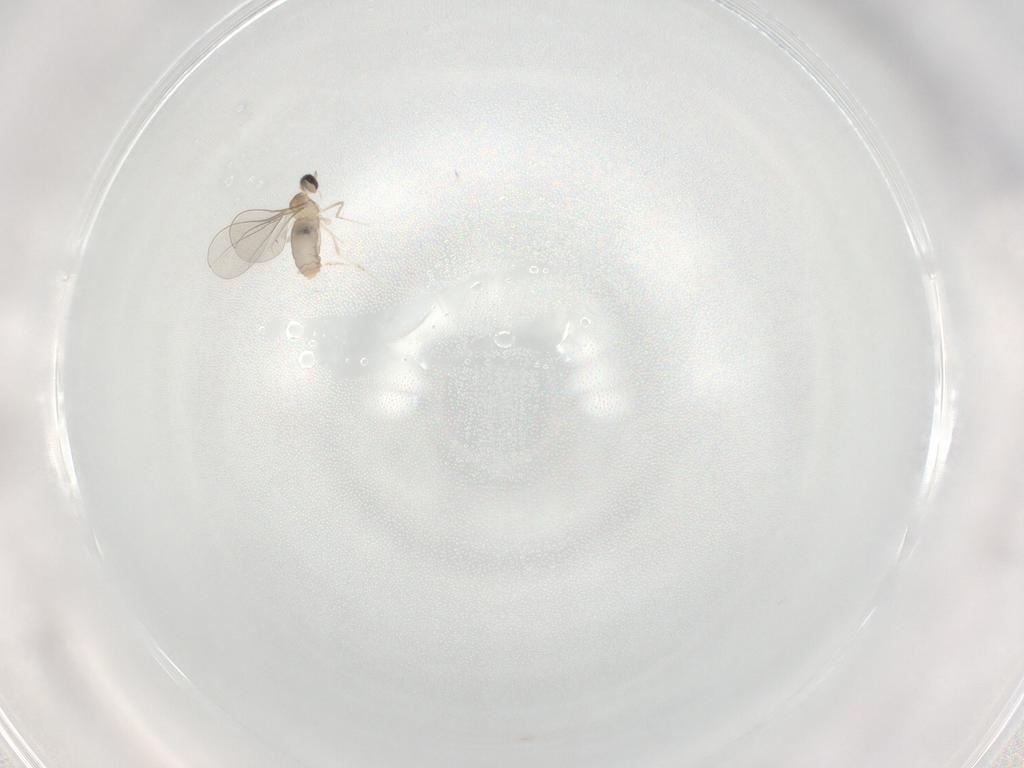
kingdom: Animalia
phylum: Arthropoda
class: Insecta
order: Diptera
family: Cecidomyiidae
